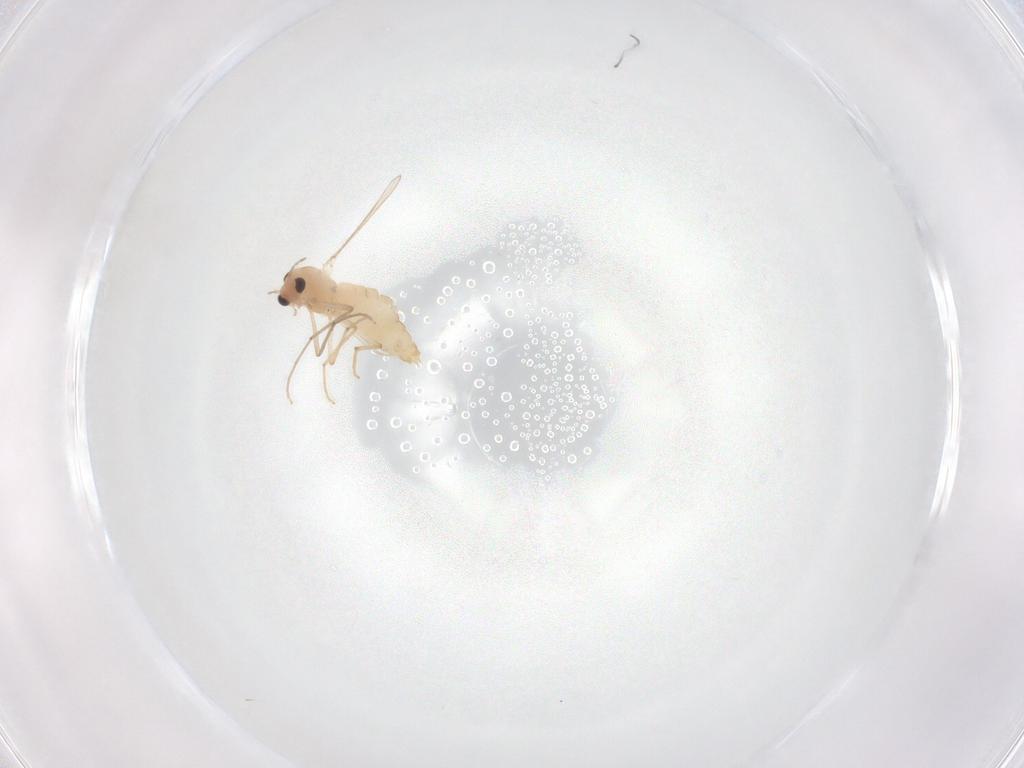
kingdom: Animalia
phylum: Arthropoda
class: Insecta
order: Diptera
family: Chironomidae
